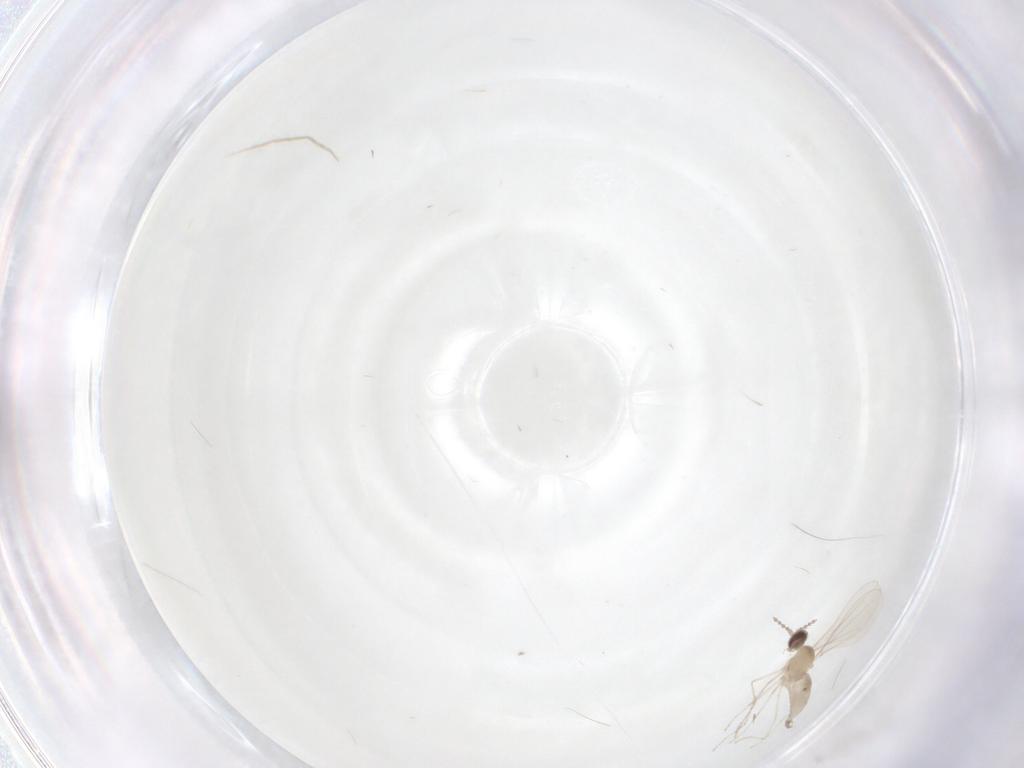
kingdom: Animalia
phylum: Arthropoda
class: Insecta
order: Diptera
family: Cecidomyiidae
